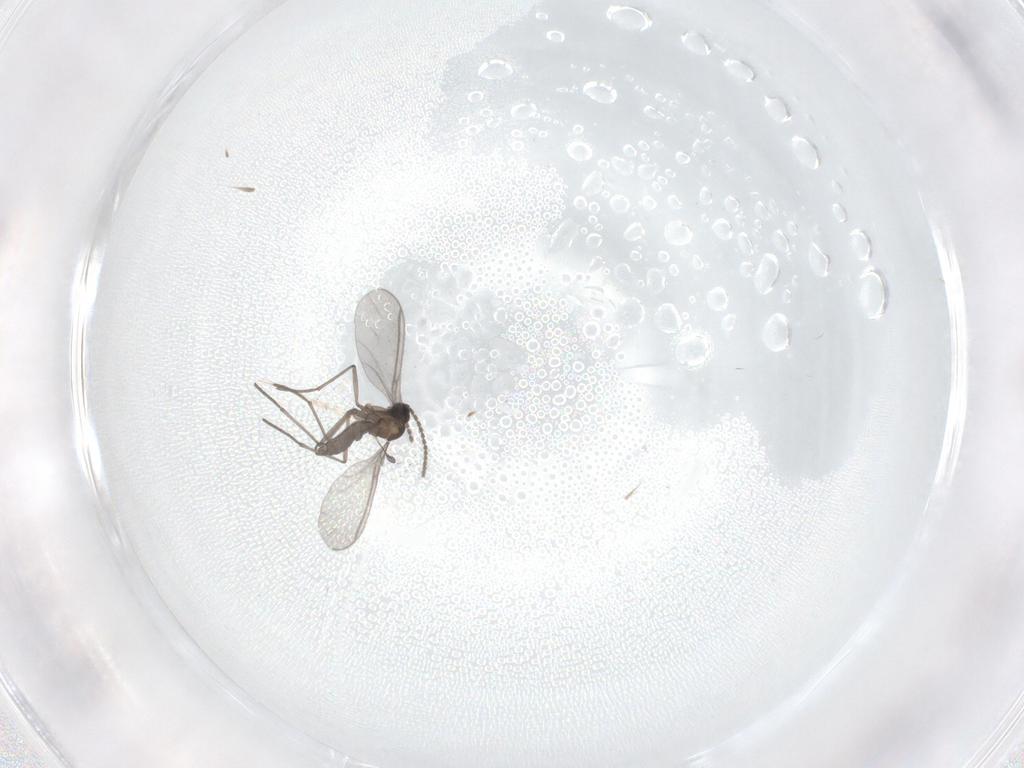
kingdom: Animalia
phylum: Arthropoda
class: Insecta
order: Diptera
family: Sciaridae
